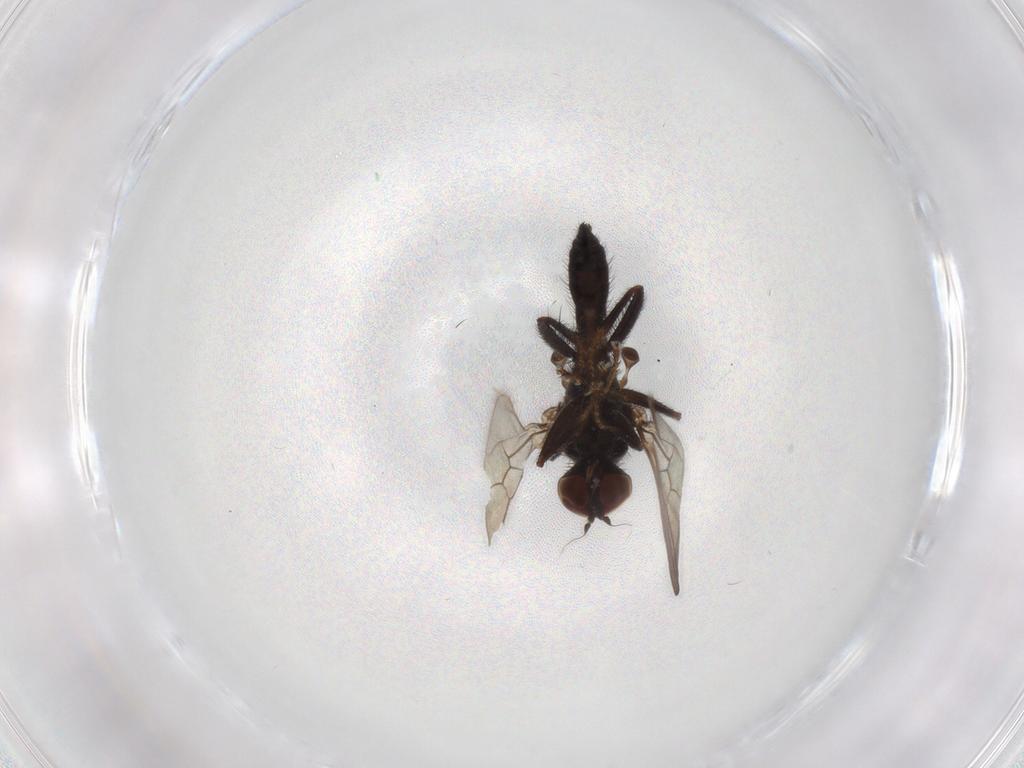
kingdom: Animalia
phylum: Arthropoda
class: Insecta
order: Diptera
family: Hybotidae
